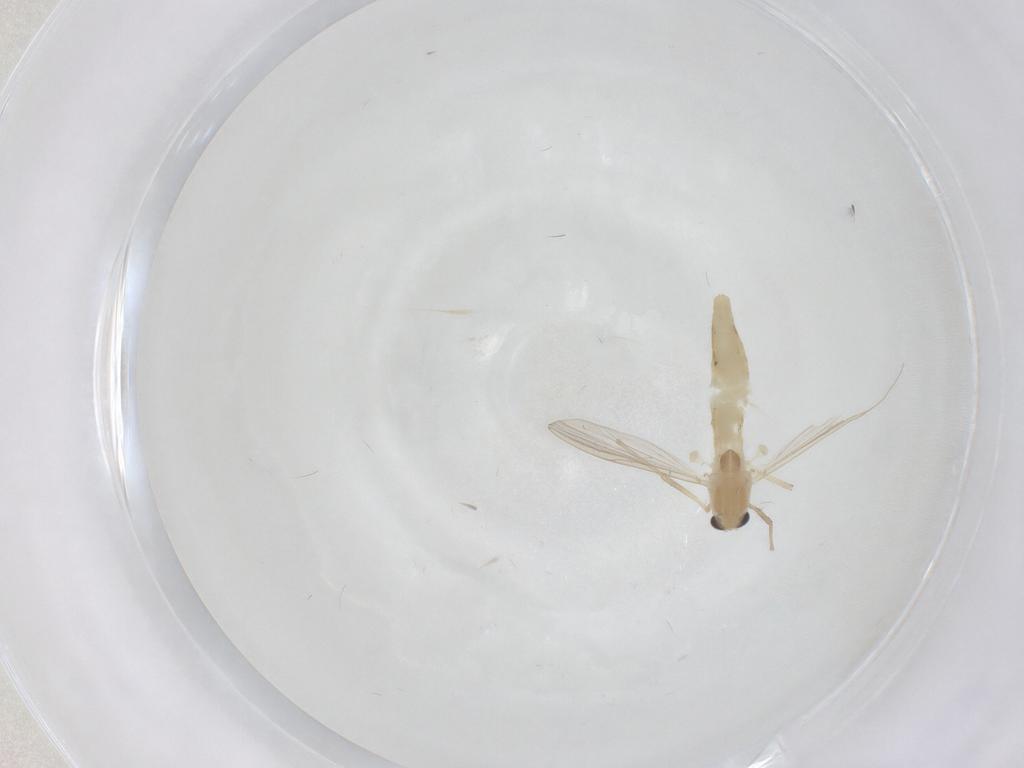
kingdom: Animalia
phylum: Arthropoda
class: Insecta
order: Diptera
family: Chironomidae
